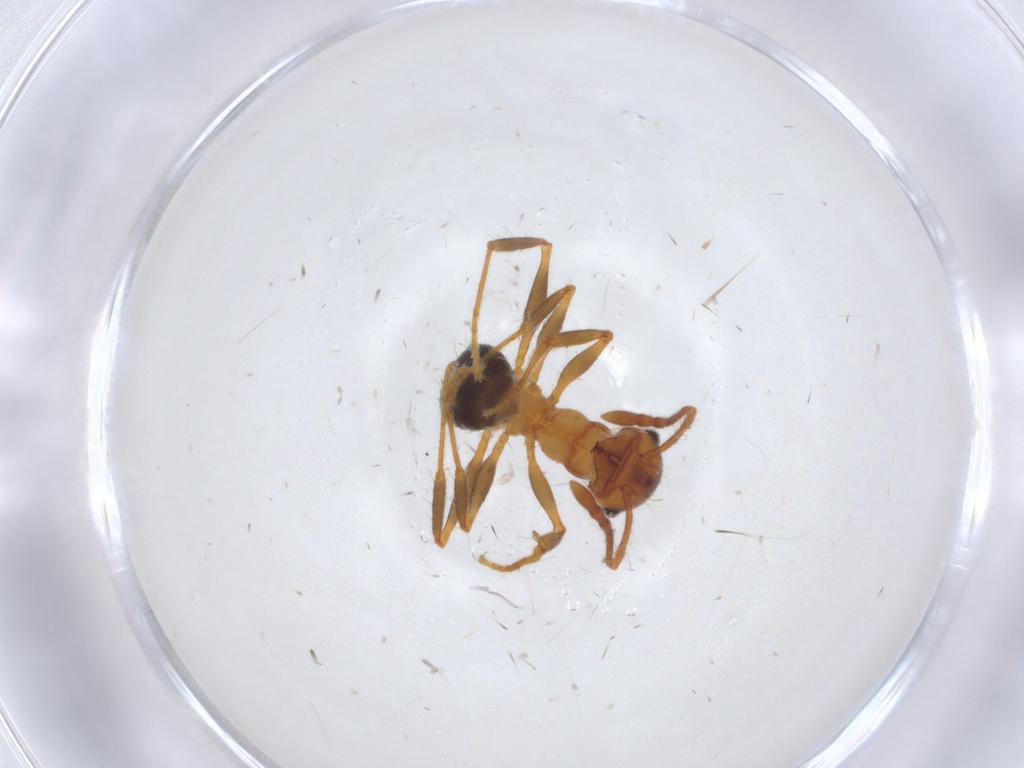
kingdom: Animalia
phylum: Arthropoda
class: Insecta
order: Hymenoptera
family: Formicidae
